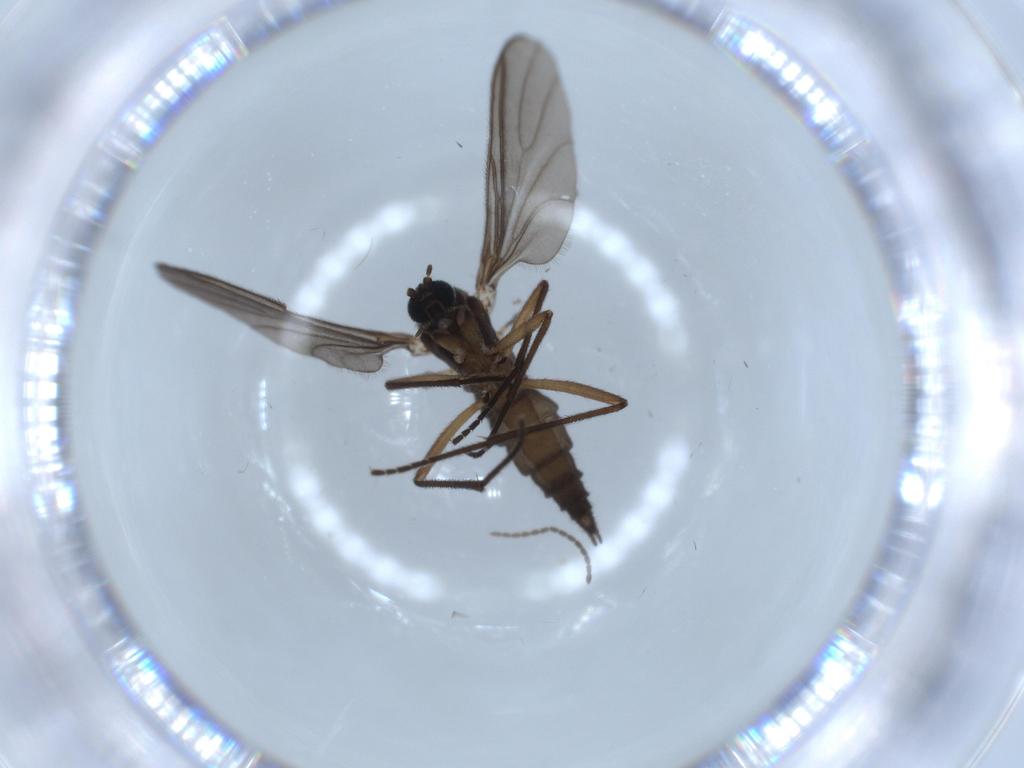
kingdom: Animalia
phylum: Arthropoda
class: Insecta
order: Diptera
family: Sciaridae
